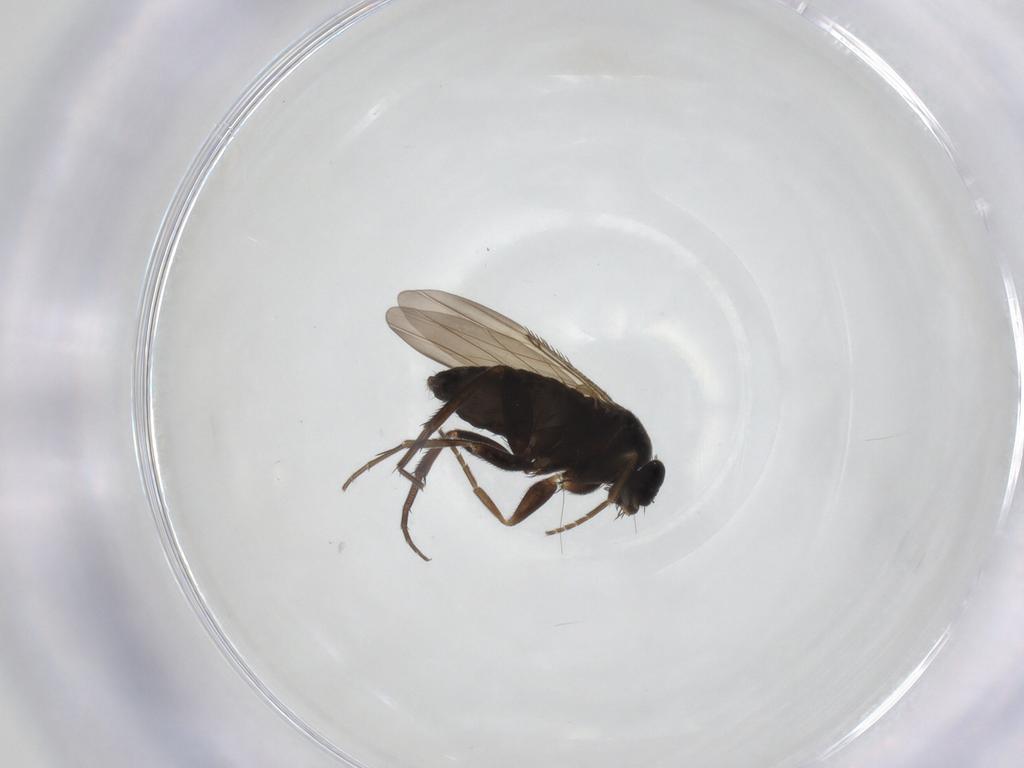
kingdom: Animalia
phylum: Arthropoda
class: Insecta
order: Diptera
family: Phoridae
